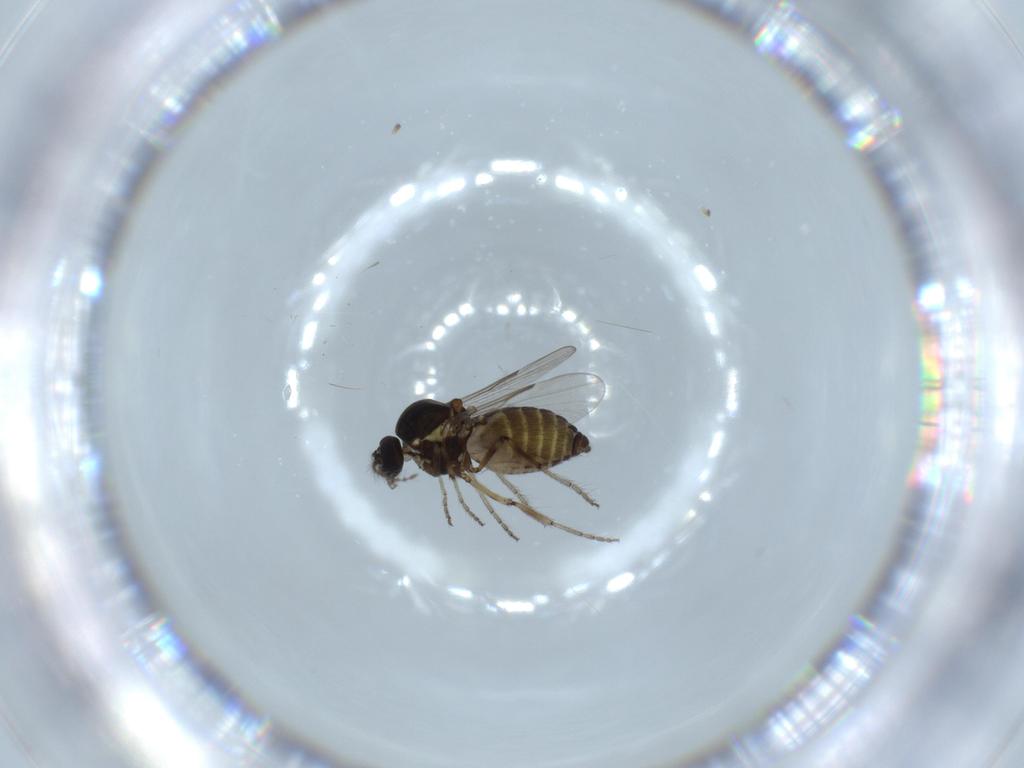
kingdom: Animalia
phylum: Arthropoda
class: Insecta
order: Diptera
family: Ceratopogonidae
